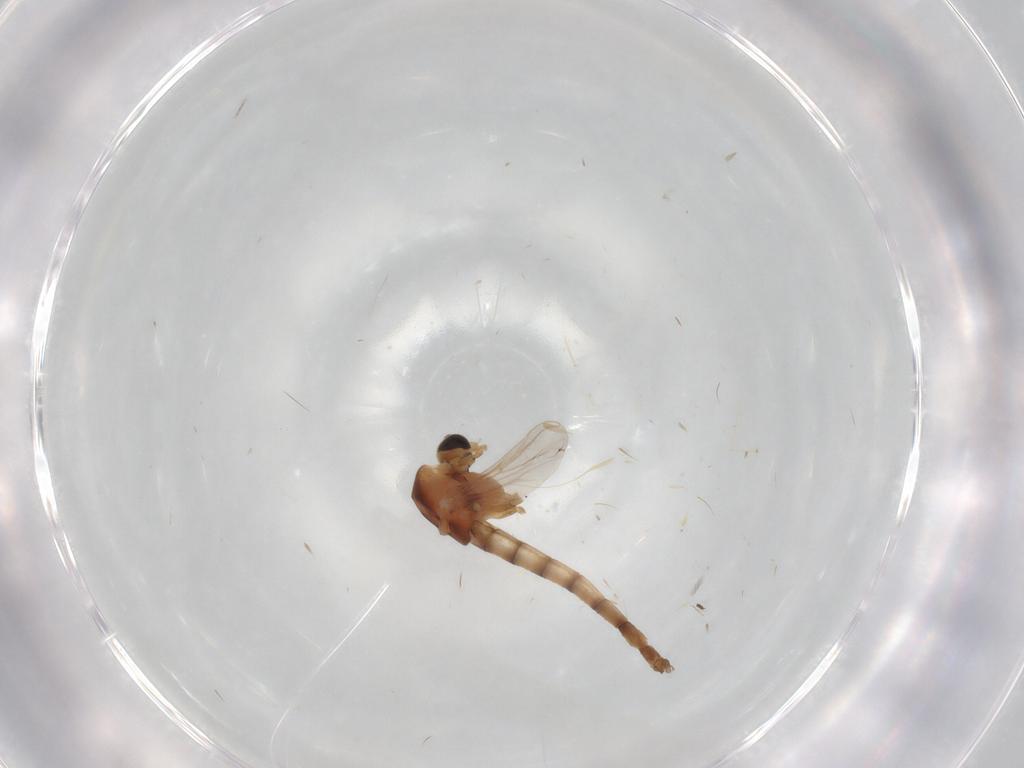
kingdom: Animalia
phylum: Arthropoda
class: Insecta
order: Diptera
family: Chironomidae
